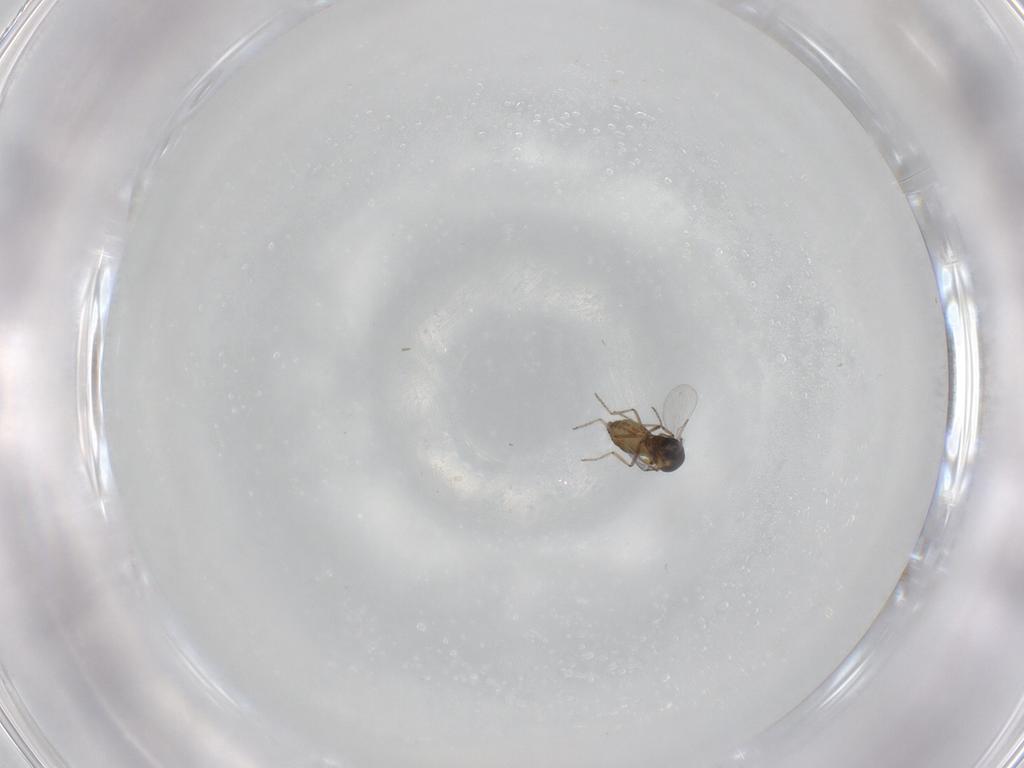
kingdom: Animalia
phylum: Arthropoda
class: Insecta
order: Diptera
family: Ceratopogonidae
